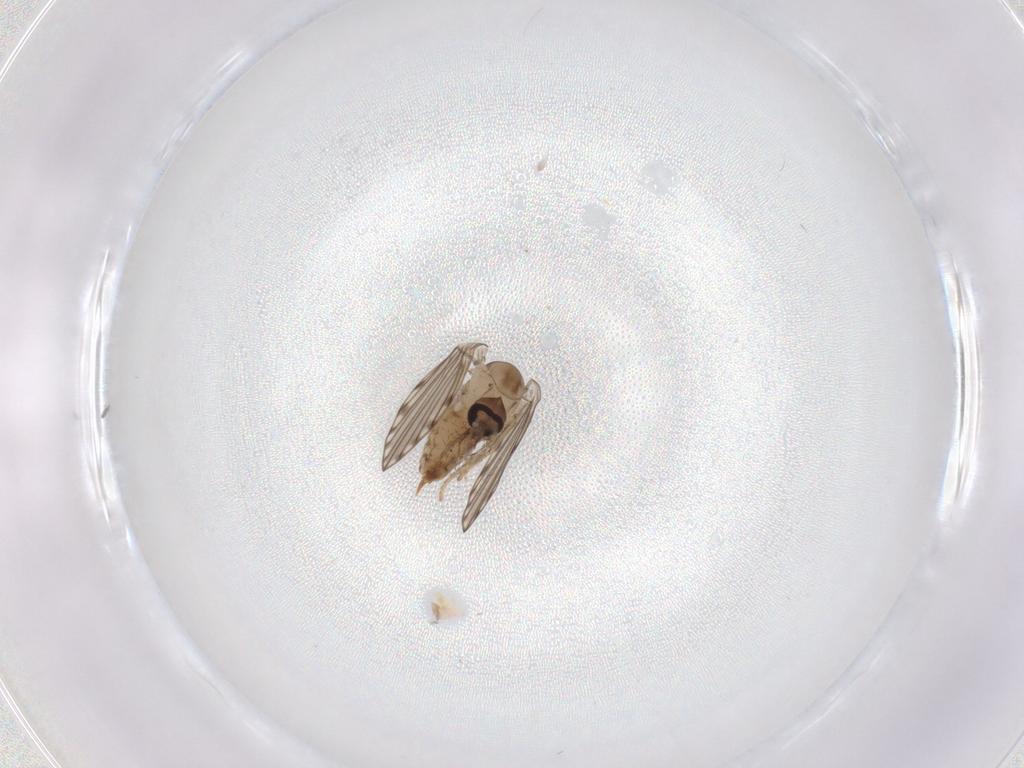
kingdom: Animalia
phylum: Arthropoda
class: Insecta
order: Diptera
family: Psychodidae
